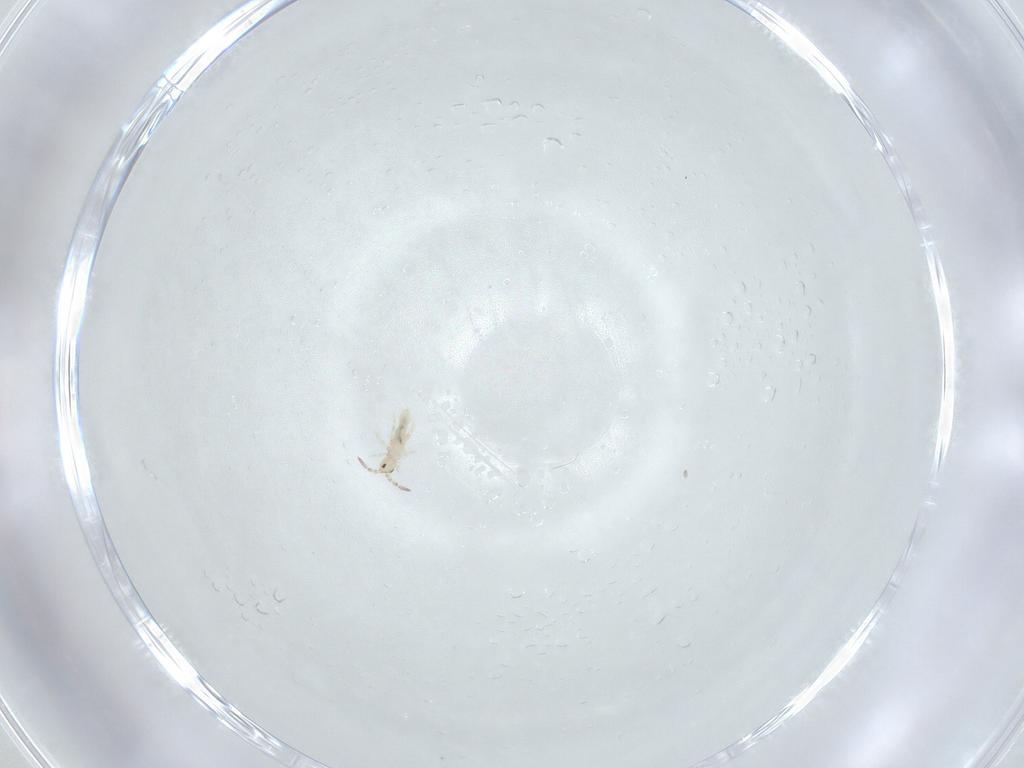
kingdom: Animalia
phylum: Arthropoda
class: Collembola
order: Entomobryomorpha
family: Entomobryidae
